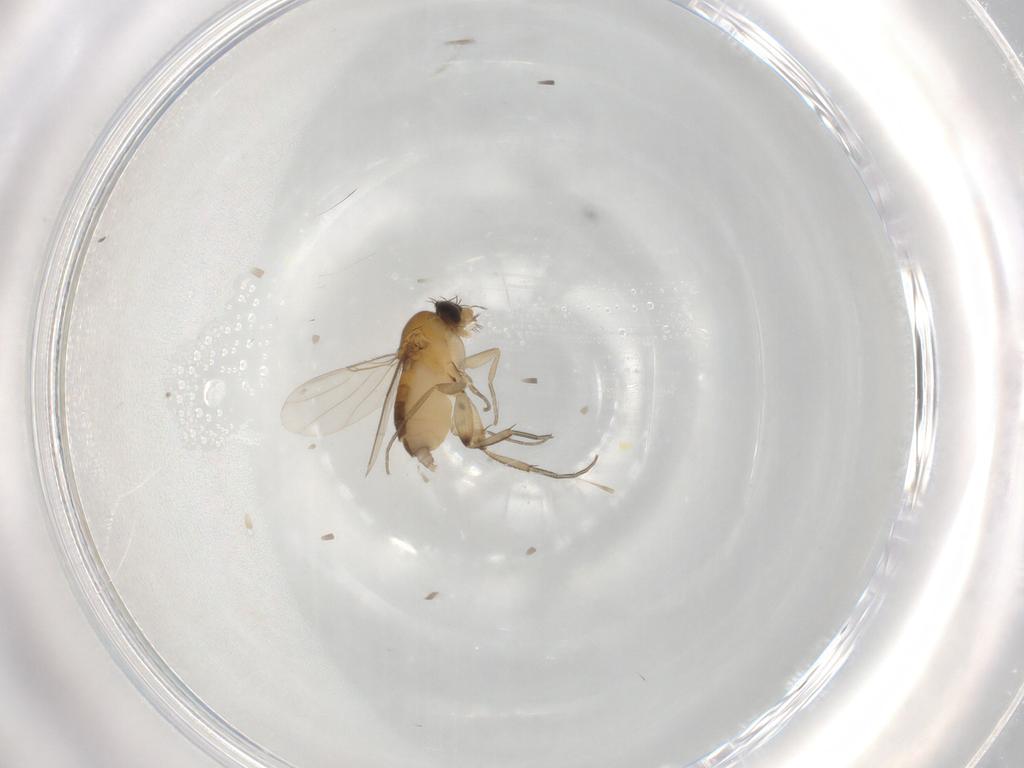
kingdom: Animalia
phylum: Arthropoda
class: Insecta
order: Diptera
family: Phoridae
